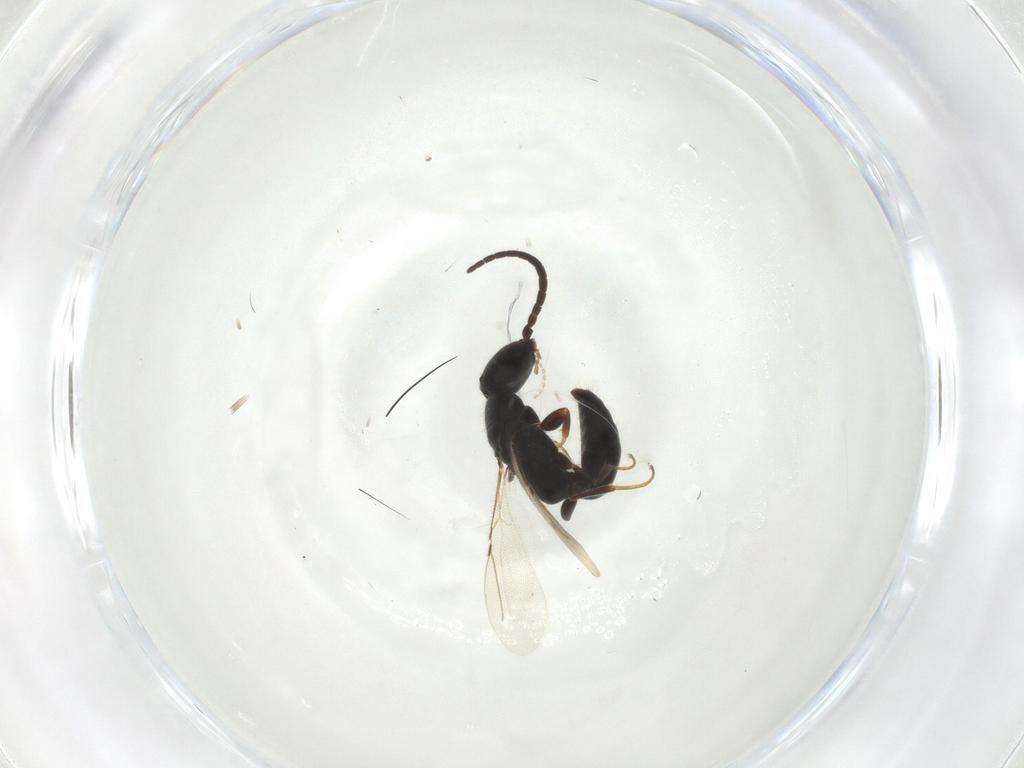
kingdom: Animalia
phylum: Arthropoda
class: Insecta
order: Hymenoptera
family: Bethylidae
